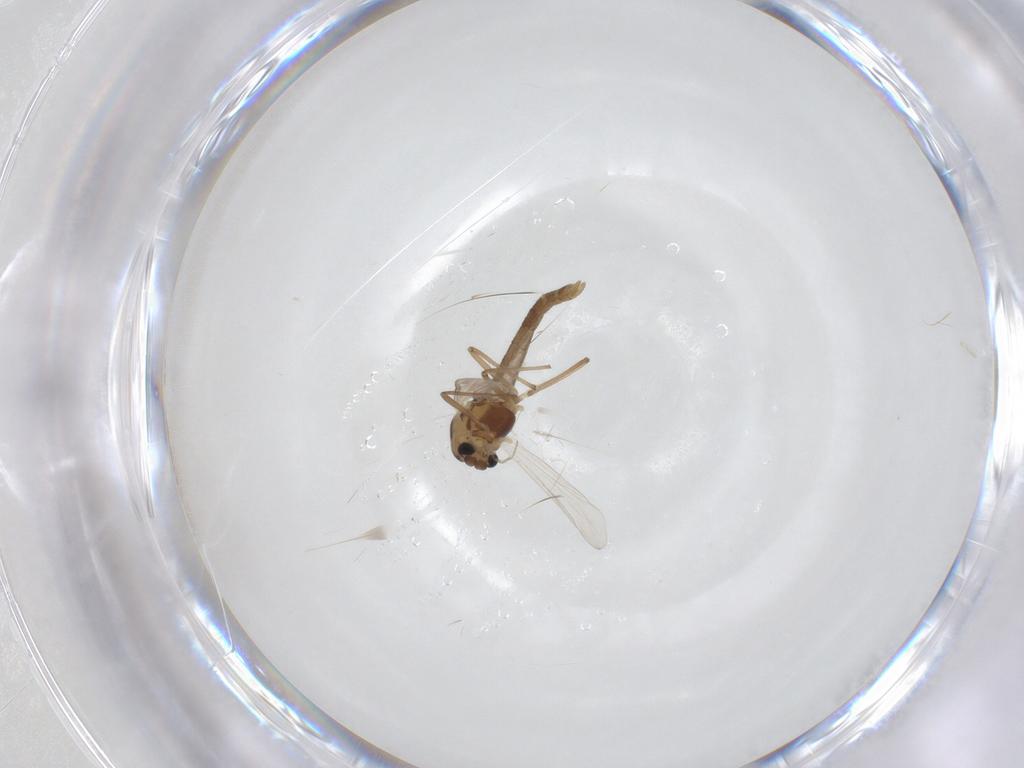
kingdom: Animalia
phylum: Arthropoda
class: Insecta
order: Diptera
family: Chironomidae
